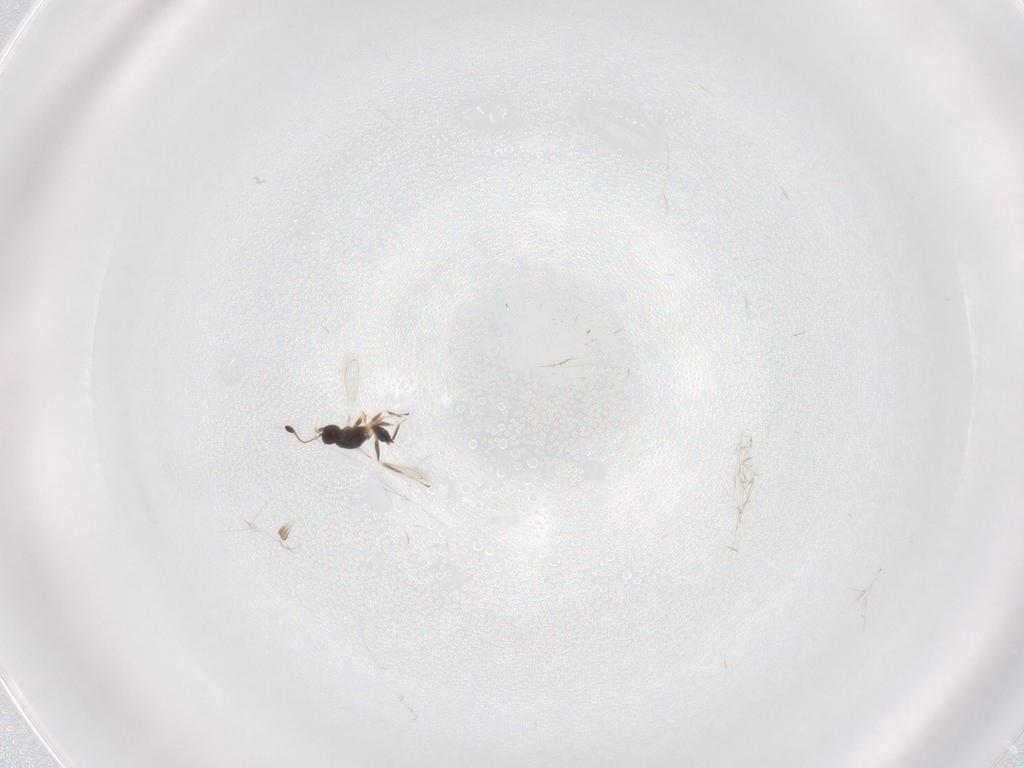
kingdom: Animalia
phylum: Arthropoda
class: Insecta
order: Hymenoptera
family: Mymaridae
